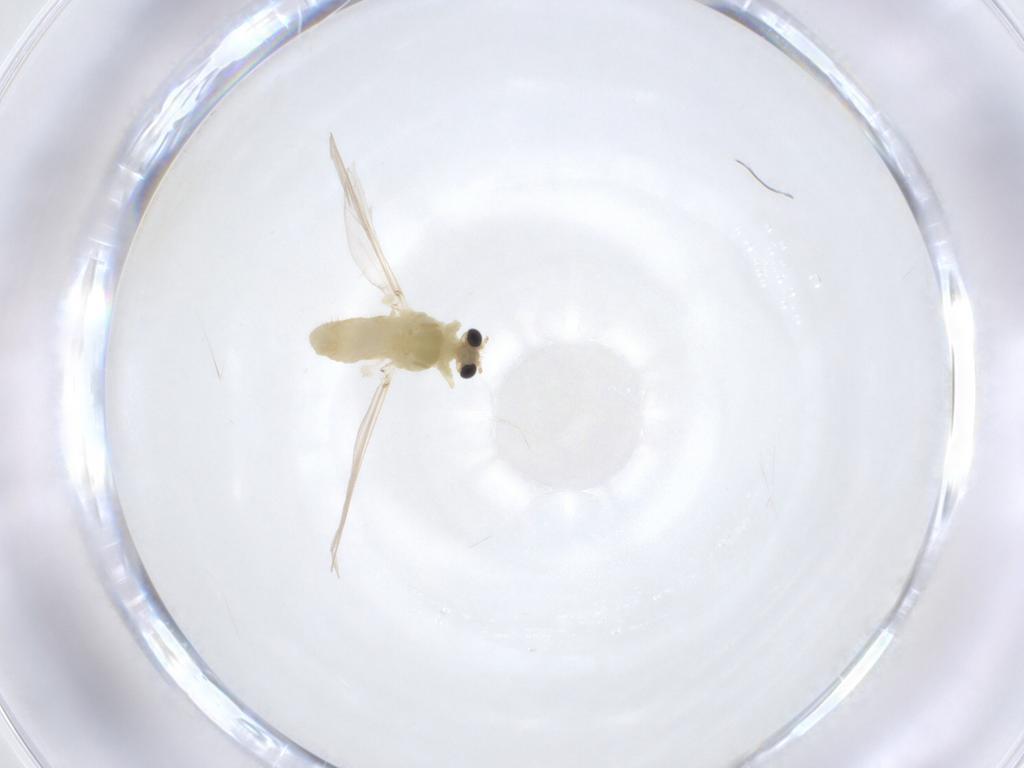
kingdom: Animalia
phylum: Arthropoda
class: Insecta
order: Diptera
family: Chironomidae
